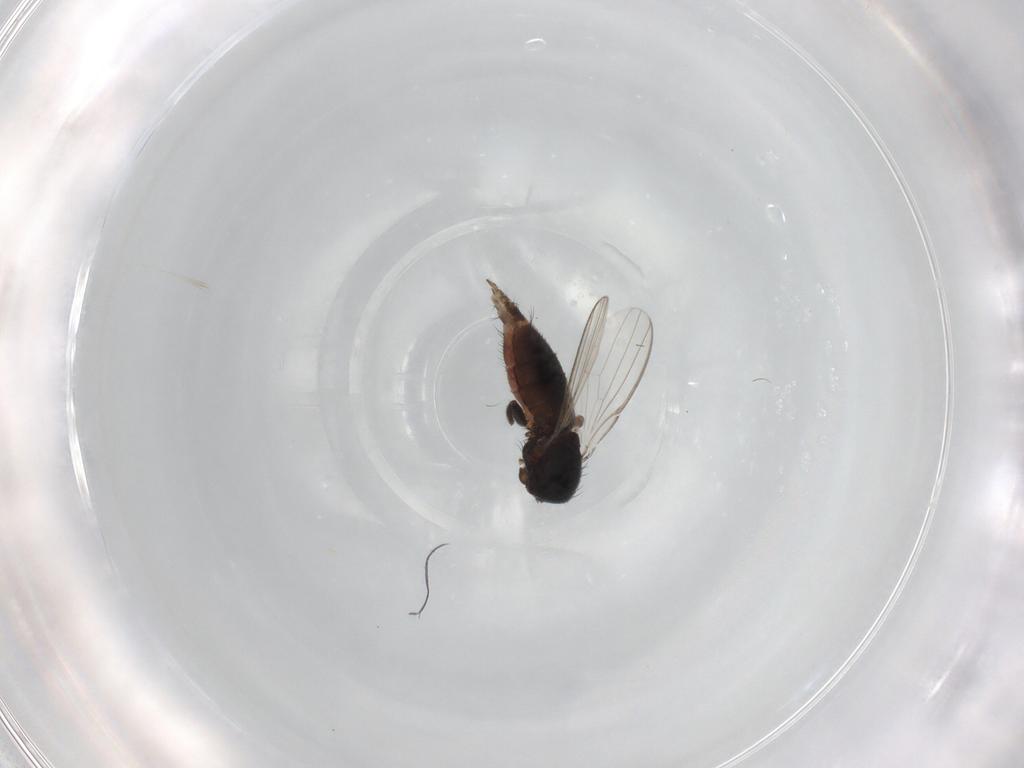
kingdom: Animalia
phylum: Arthropoda
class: Insecta
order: Diptera
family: Milichiidae
